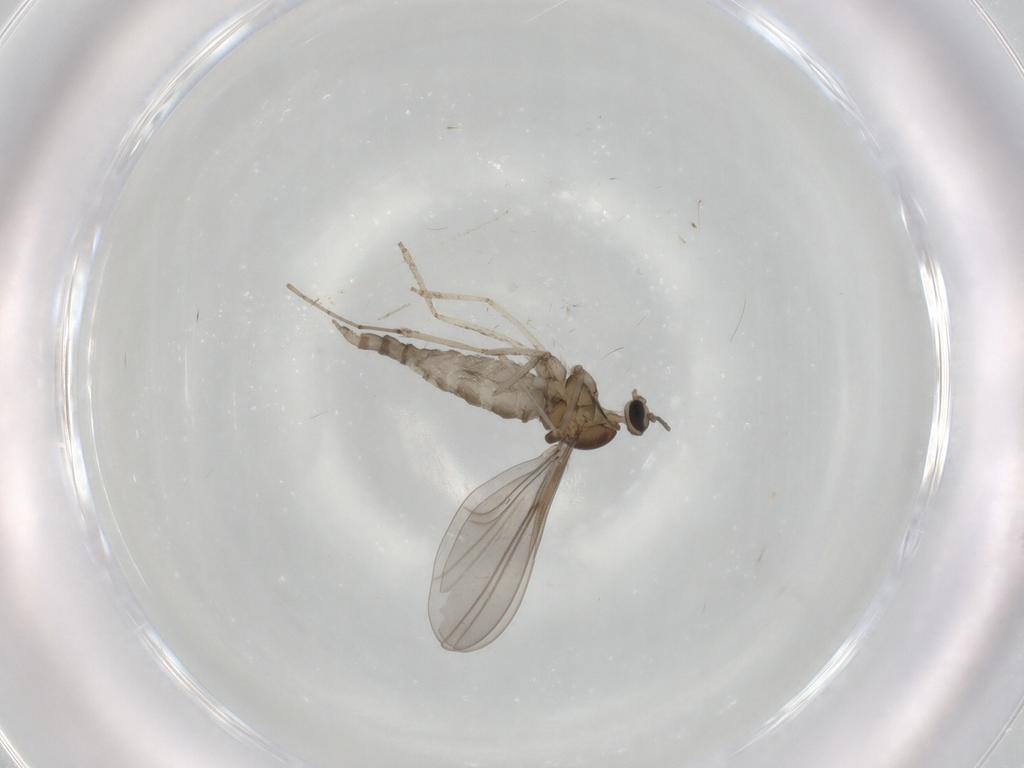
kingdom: Animalia
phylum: Arthropoda
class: Insecta
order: Diptera
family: Cecidomyiidae
